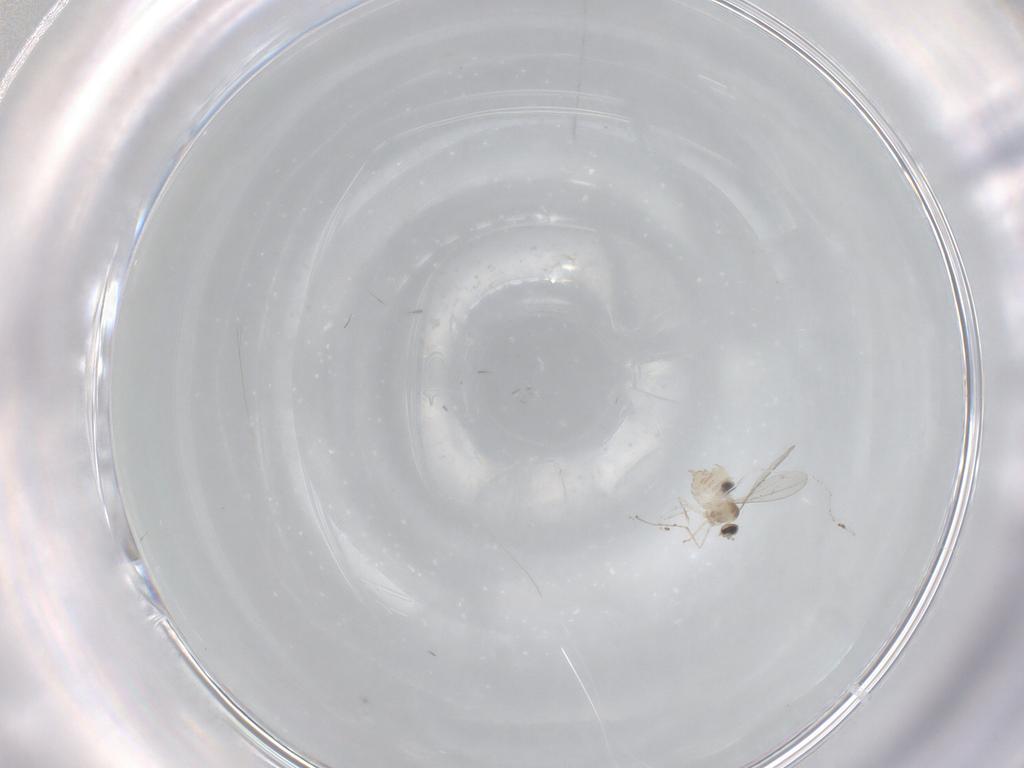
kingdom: Animalia
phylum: Arthropoda
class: Insecta
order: Diptera
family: Cecidomyiidae
